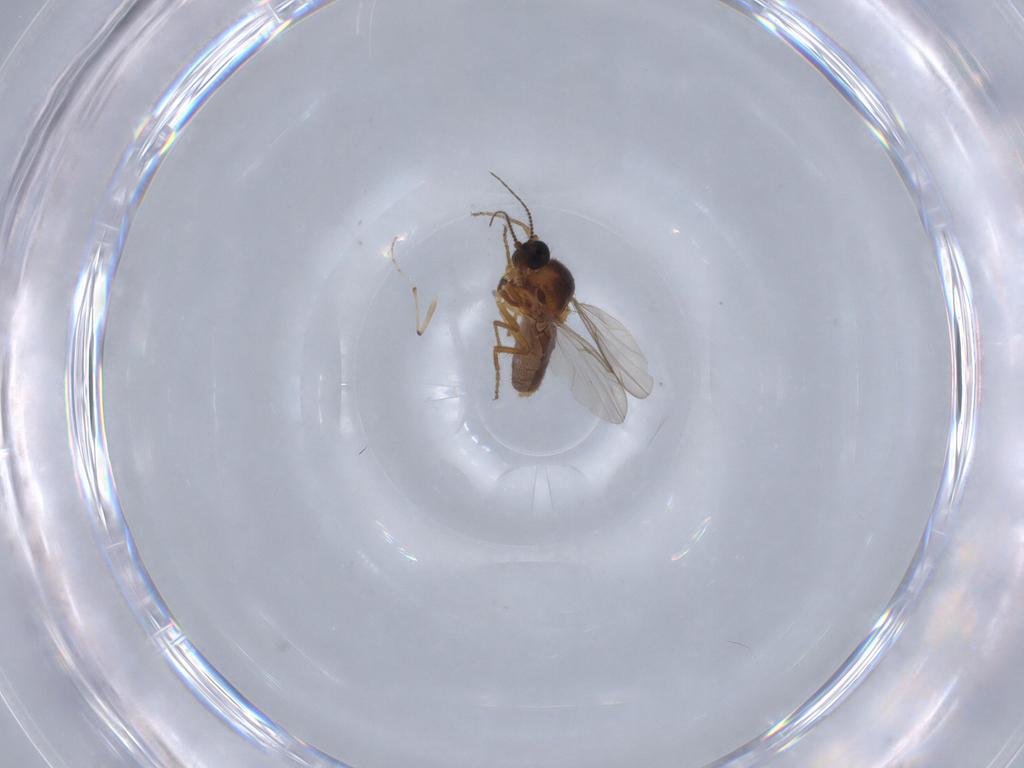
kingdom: Animalia
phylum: Arthropoda
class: Insecta
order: Diptera
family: Ceratopogonidae
